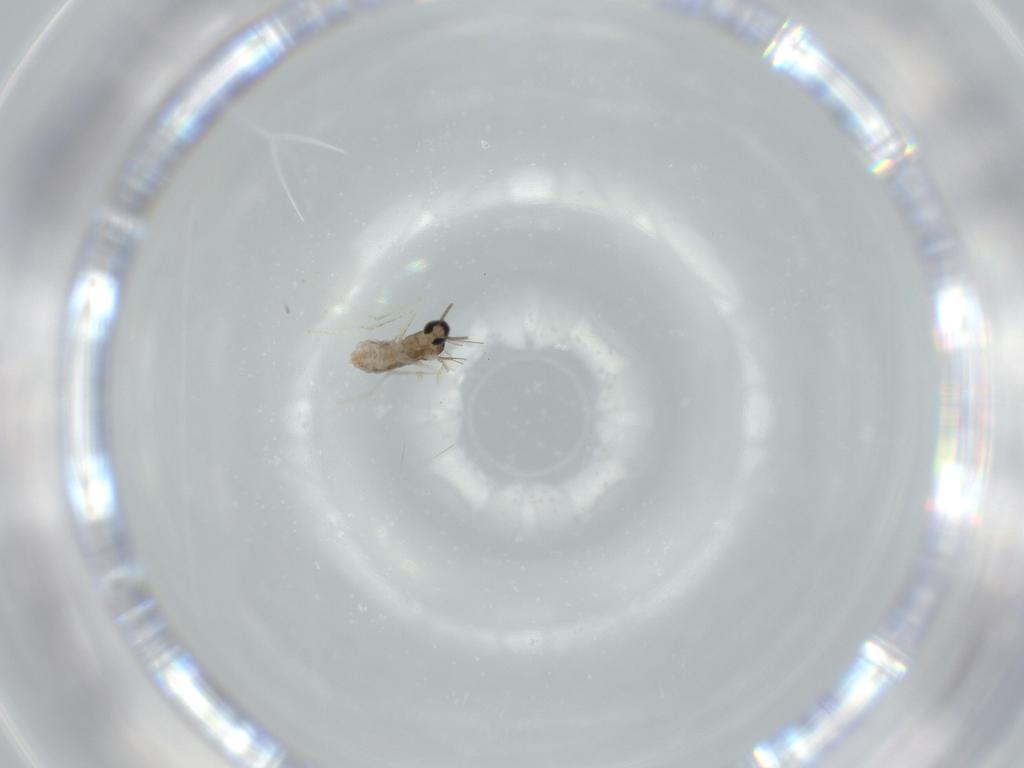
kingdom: Animalia
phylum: Arthropoda
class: Insecta
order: Diptera
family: Cecidomyiidae
